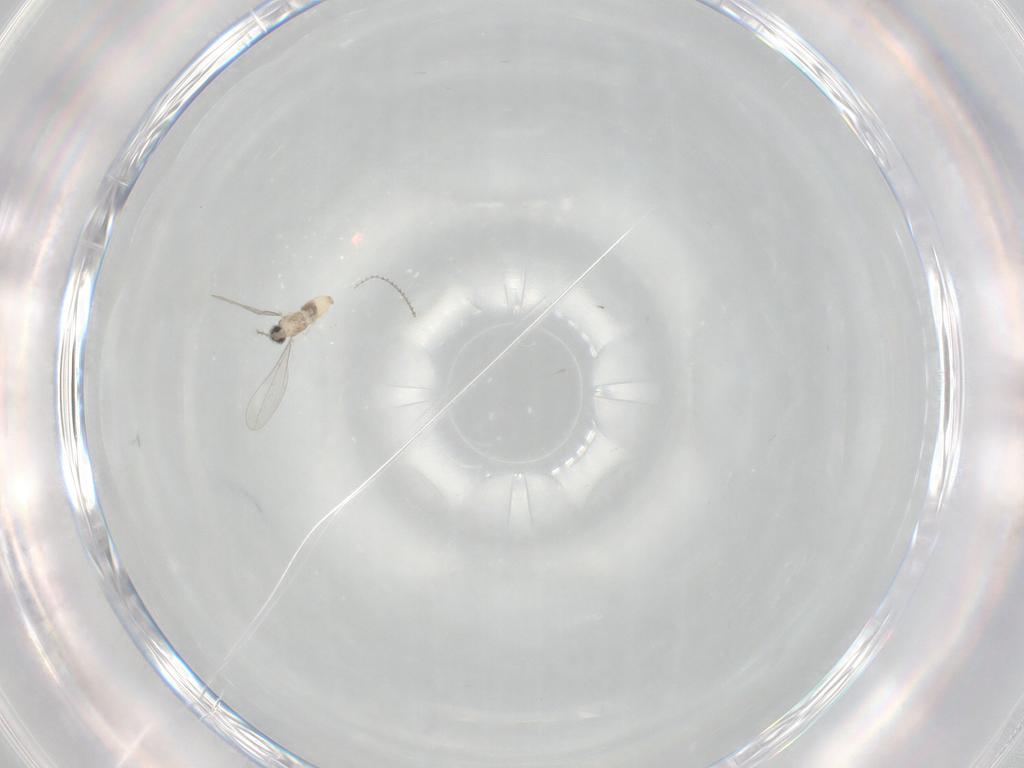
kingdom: Animalia
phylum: Arthropoda
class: Insecta
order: Diptera
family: Cecidomyiidae
